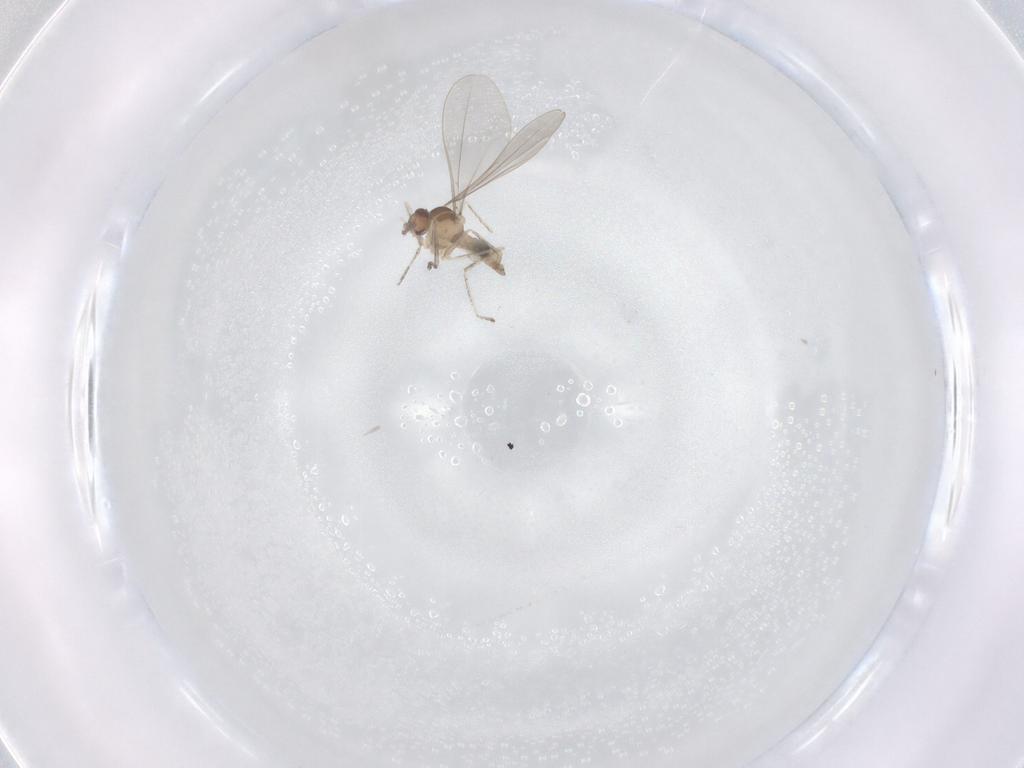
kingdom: Animalia
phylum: Arthropoda
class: Insecta
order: Diptera
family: Cecidomyiidae
